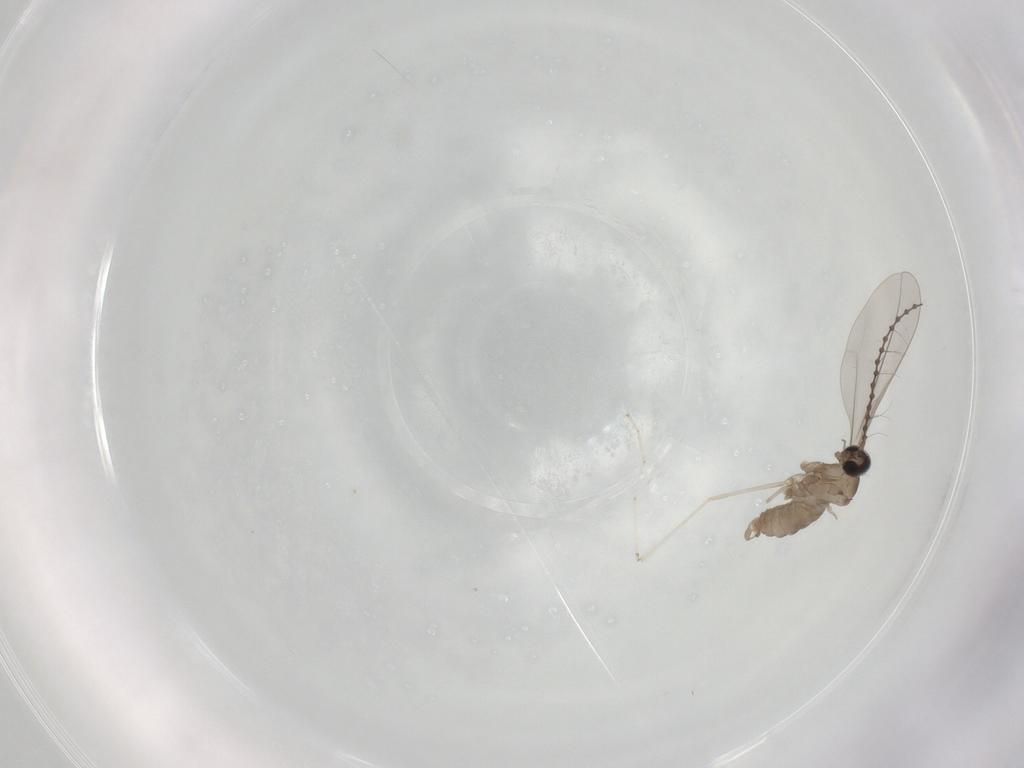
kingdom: Animalia
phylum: Arthropoda
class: Insecta
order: Diptera
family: Cecidomyiidae
